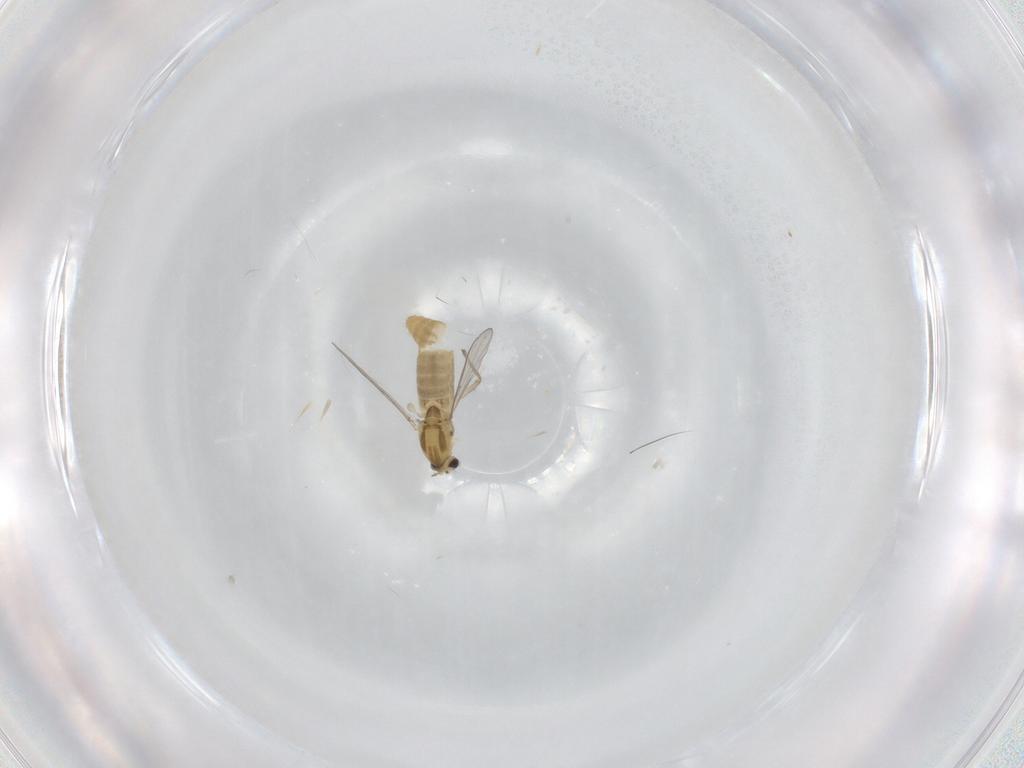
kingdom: Animalia
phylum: Arthropoda
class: Insecta
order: Diptera
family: Chironomidae
